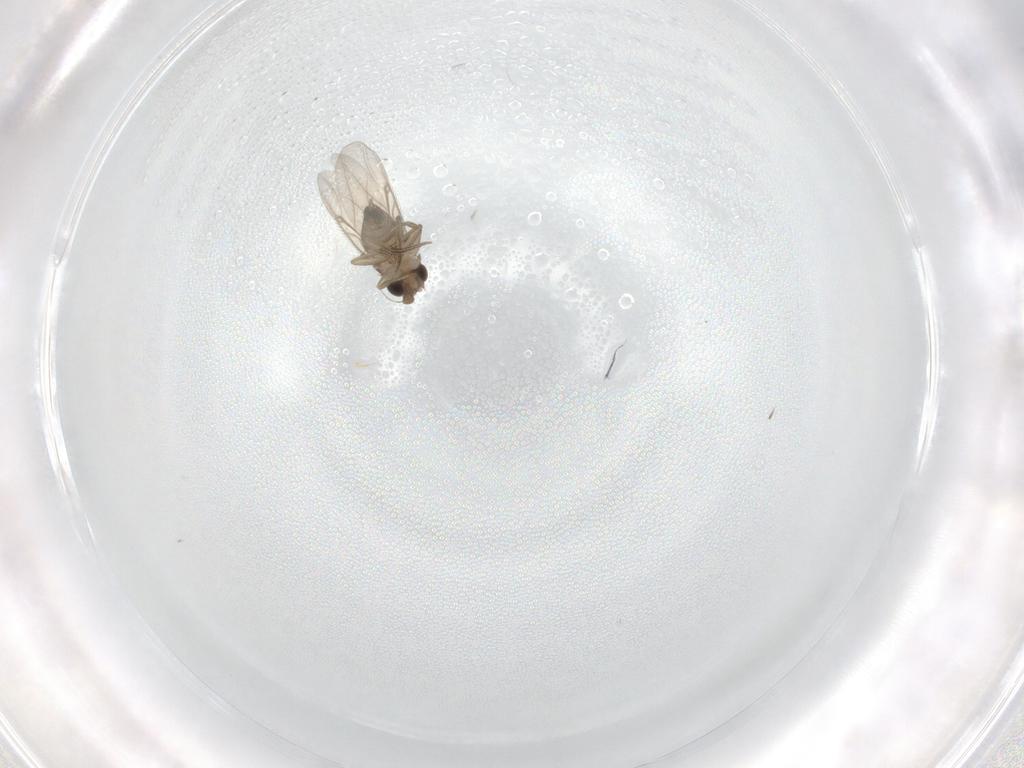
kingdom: Animalia
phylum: Arthropoda
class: Insecta
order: Diptera
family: Phoridae
